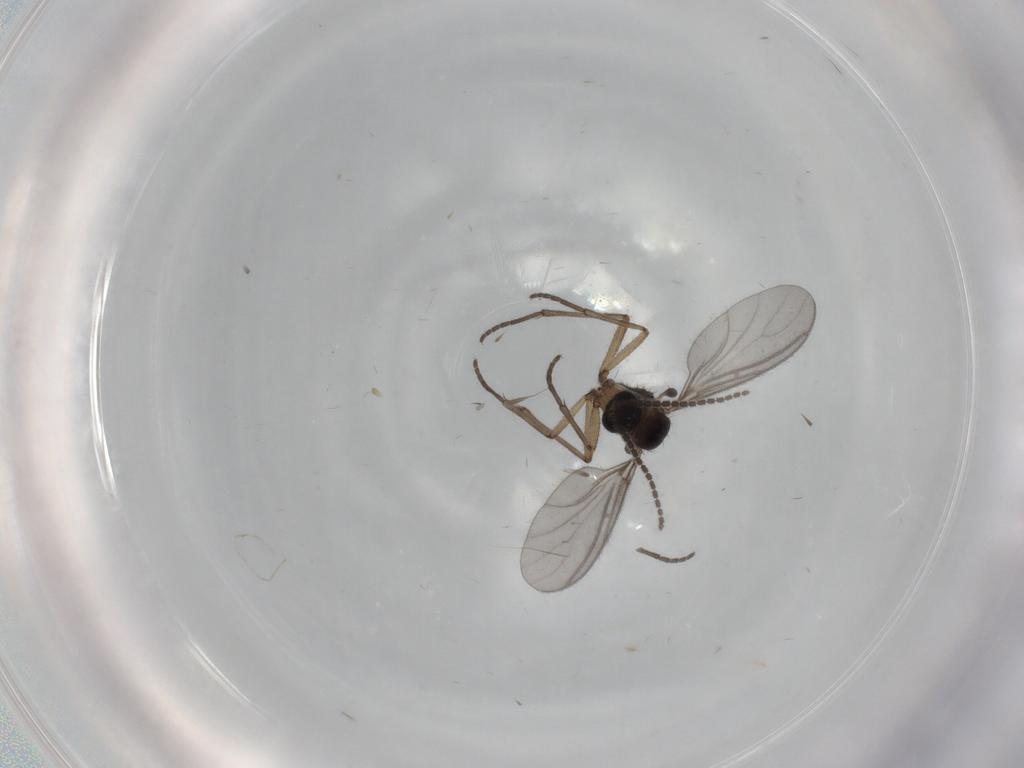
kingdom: Animalia
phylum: Arthropoda
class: Insecta
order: Diptera
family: Sciaridae
